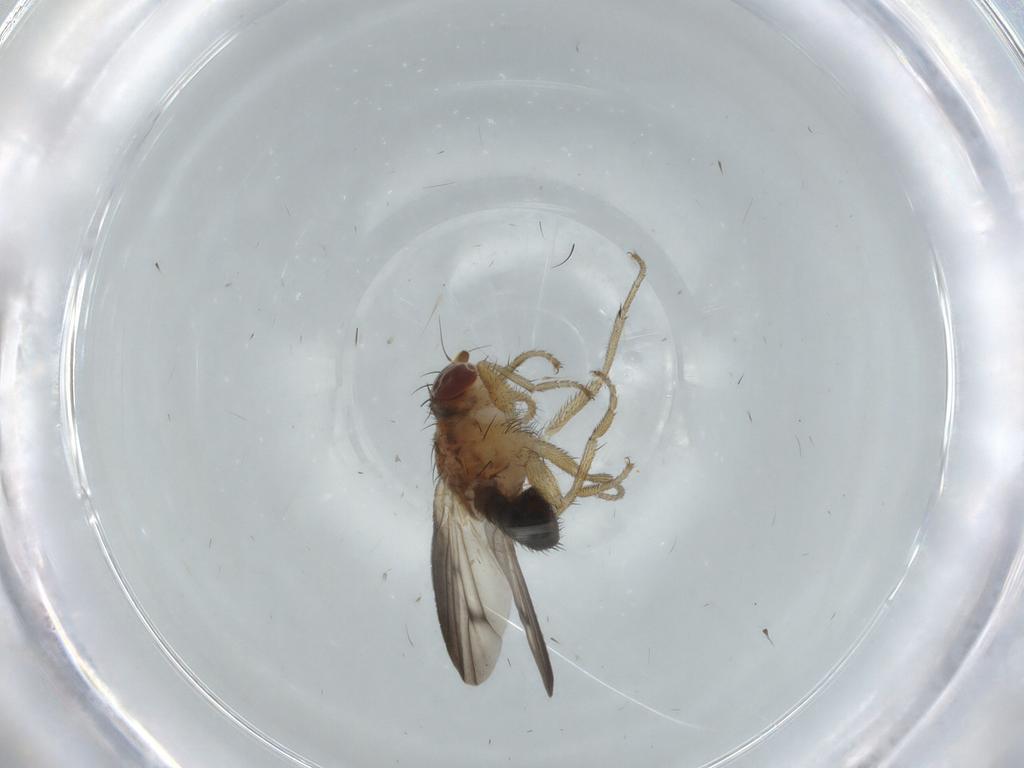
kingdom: Animalia
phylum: Arthropoda
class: Insecta
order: Diptera
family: Heleomyzidae
